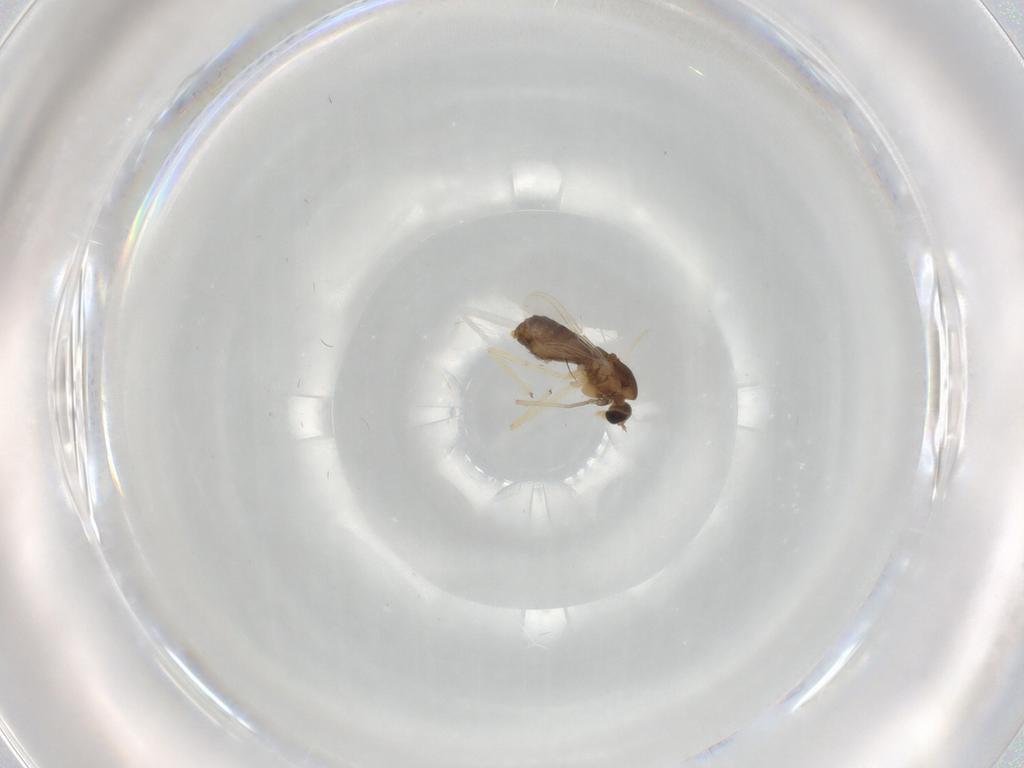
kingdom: Animalia
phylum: Arthropoda
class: Insecta
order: Diptera
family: Chironomidae
